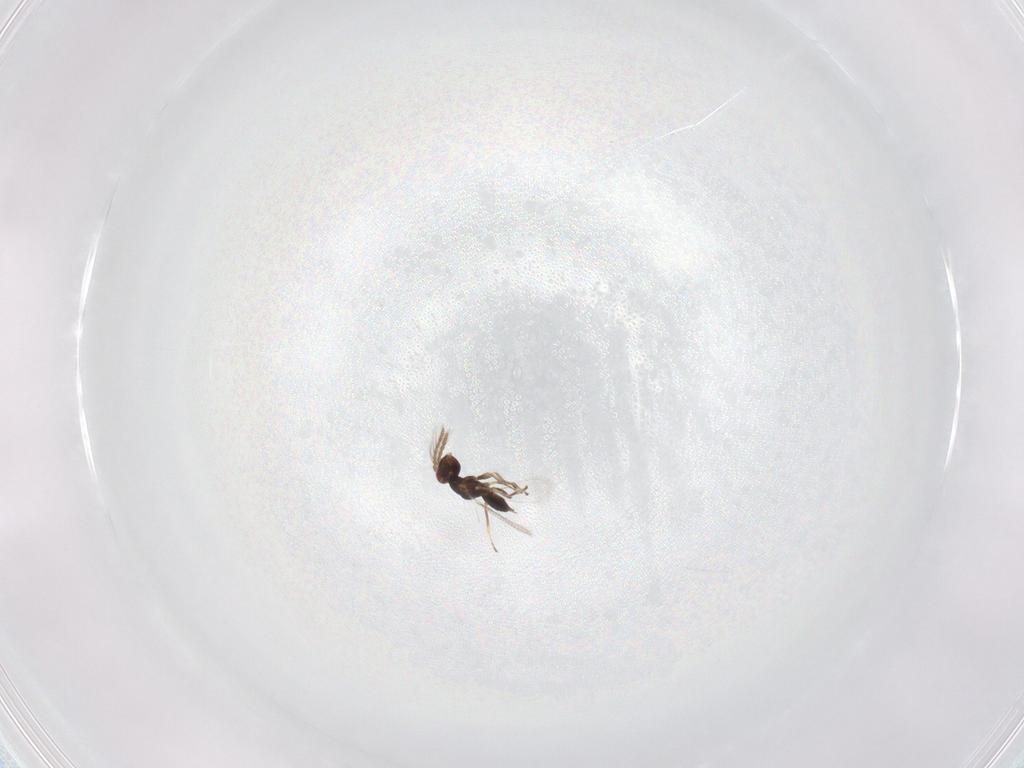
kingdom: Animalia
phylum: Arthropoda
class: Insecta
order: Hymenoptera
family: Eulophidae
